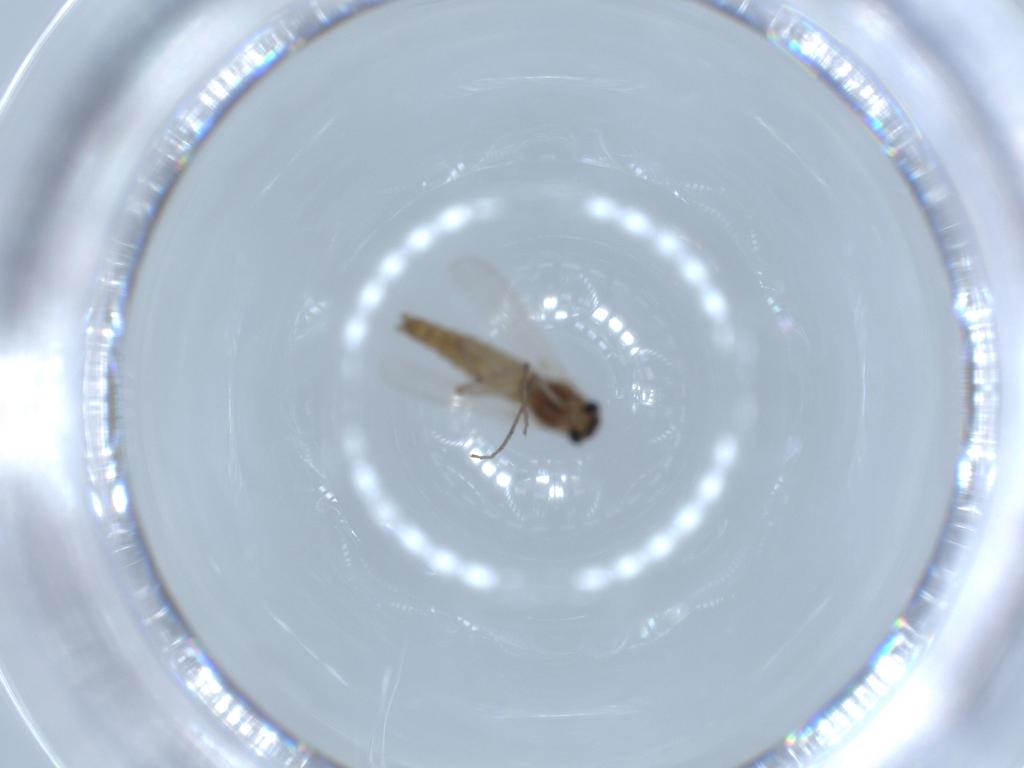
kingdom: Animalia
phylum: Arthropoda
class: Insecta
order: Diptera
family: Chironomidae
